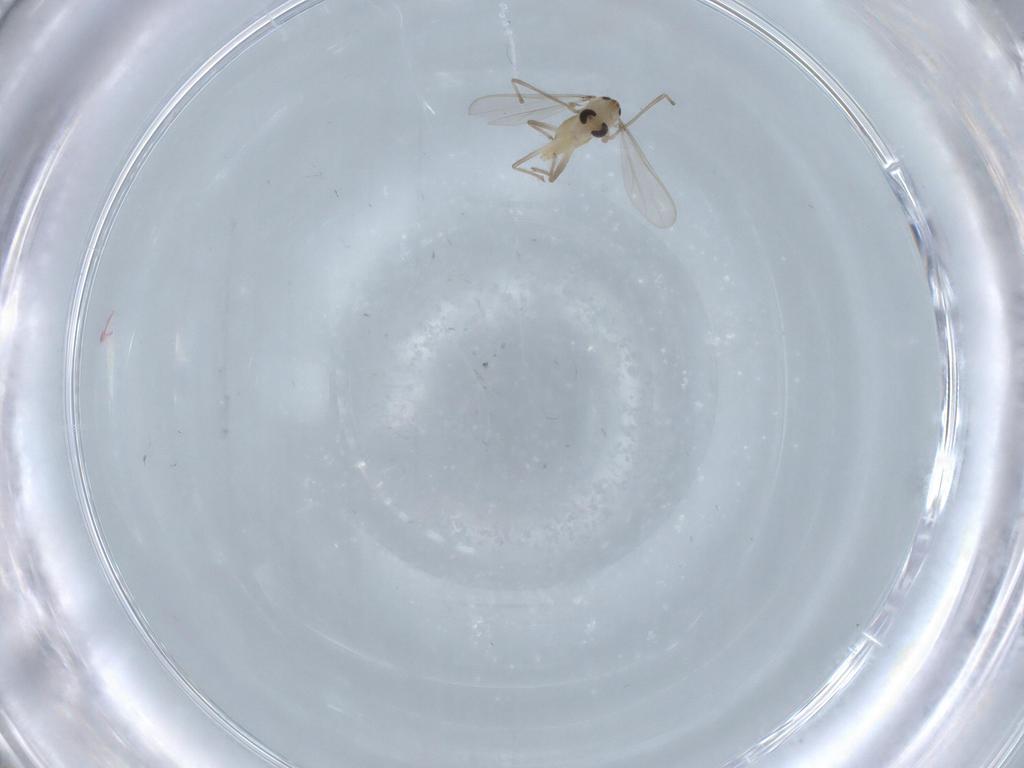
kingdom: Animalia
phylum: Arthropoda
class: Insecta
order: Diptera
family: Chironomidae
